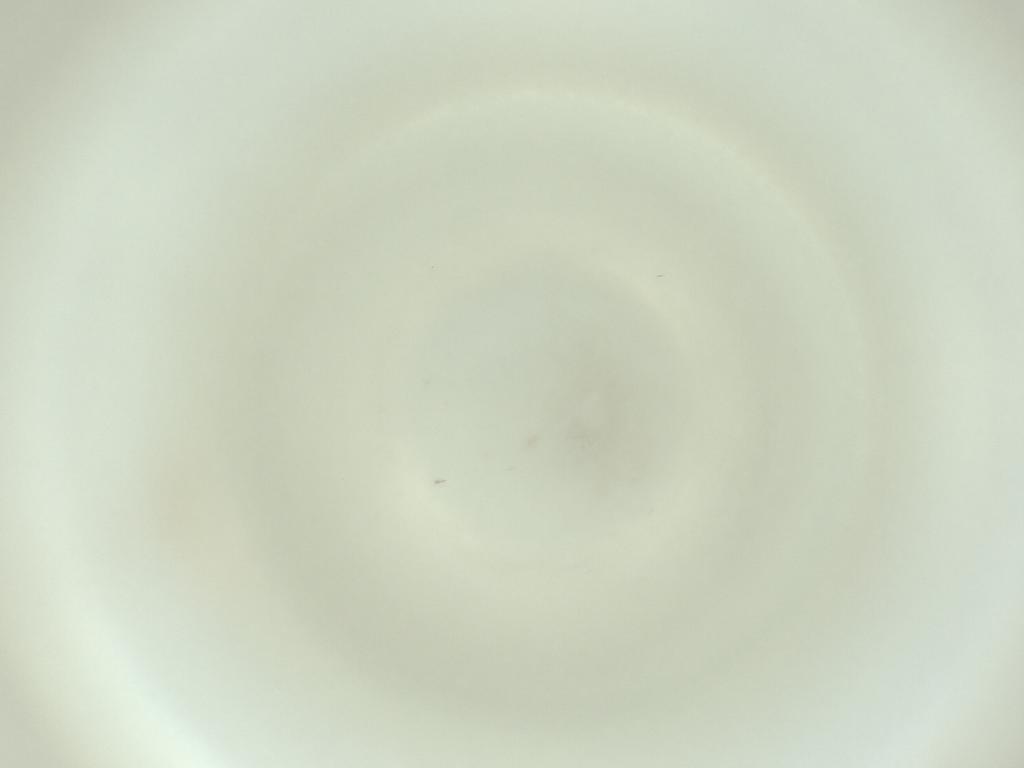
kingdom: Animalia
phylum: Arthropoda
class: Insecta
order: Diptera
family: Cecidomyiidae
